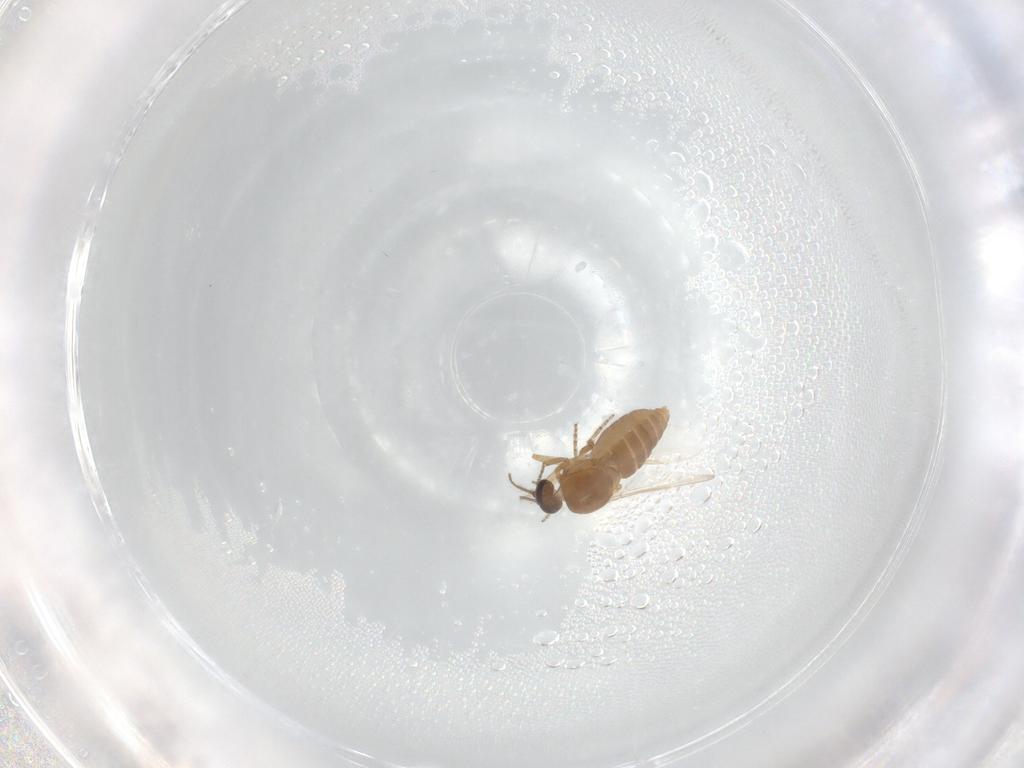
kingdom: Animalia
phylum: Arthropoda
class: Insecta
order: Diptera
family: Ceratopogonidae
